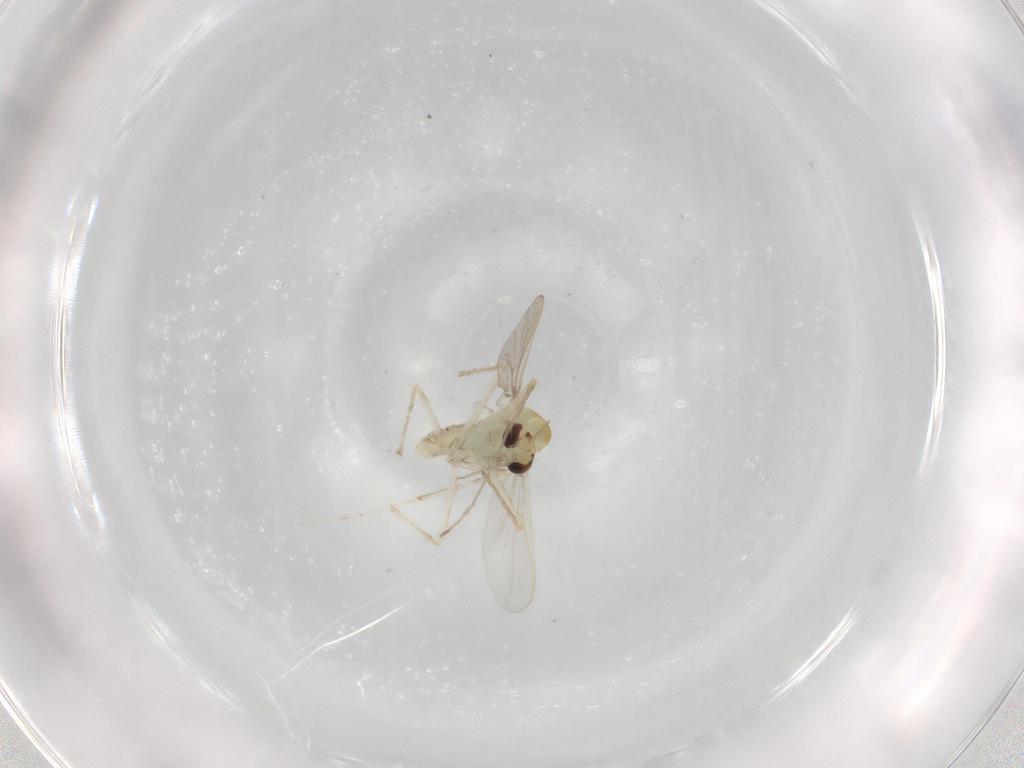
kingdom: Animalia
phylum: Arthropoda
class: Insecta
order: Diptera
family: Chironomidae
